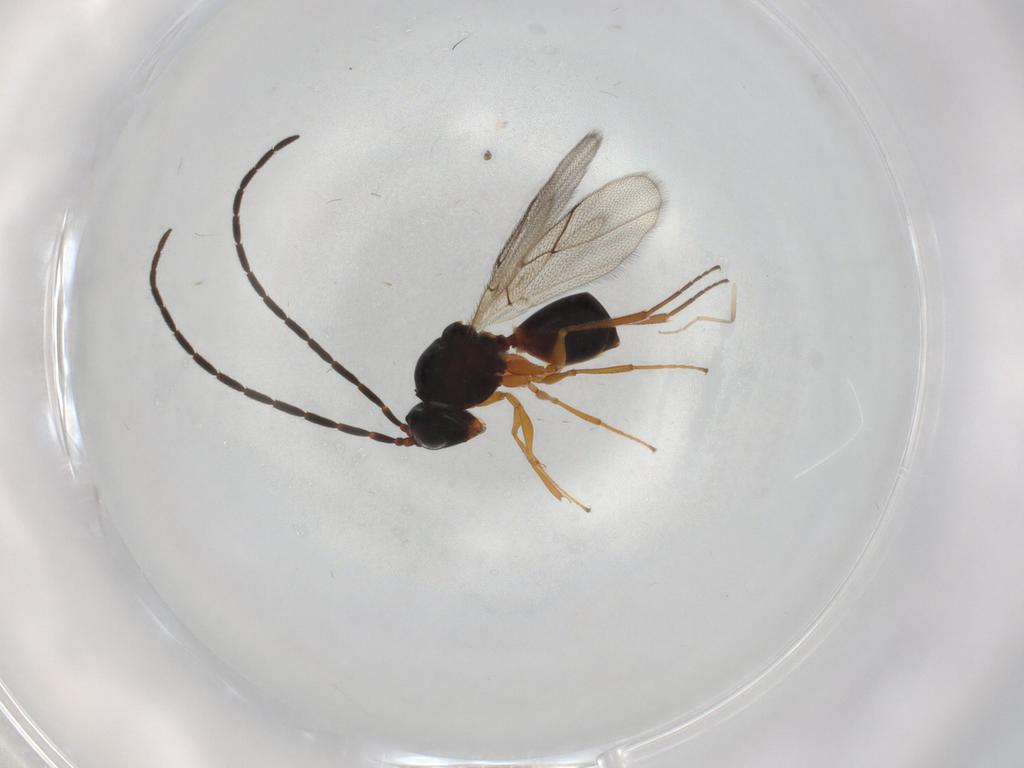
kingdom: Animalia
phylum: Arthropoda
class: Insecta
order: Hymenoptera
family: Figitidae
